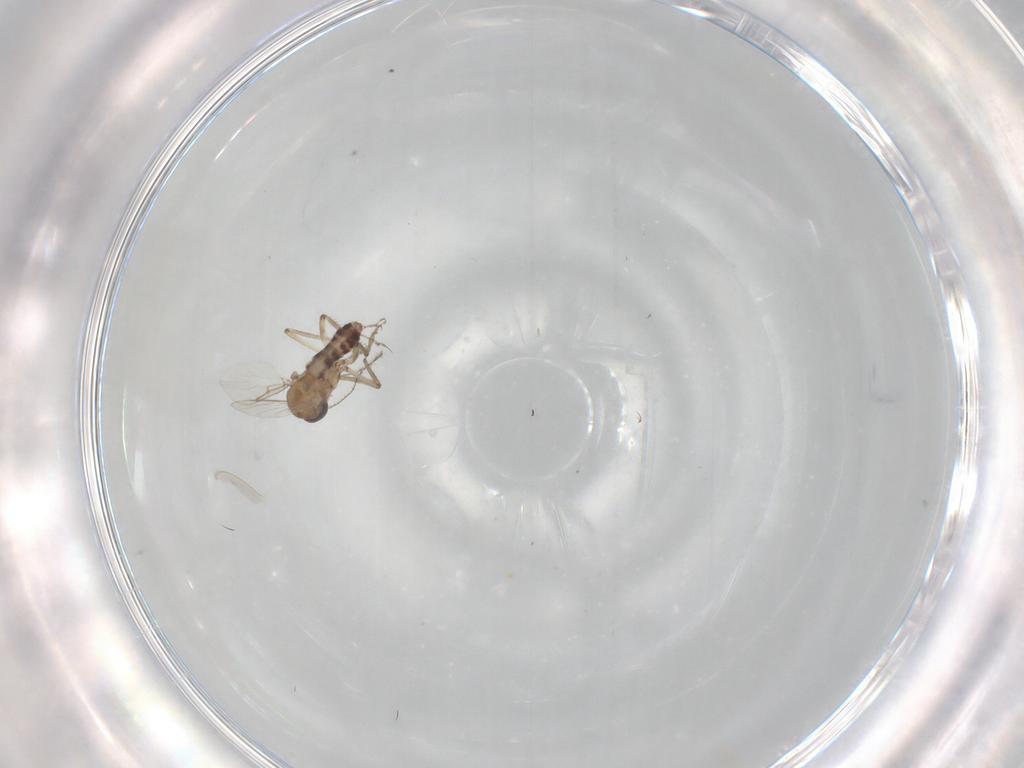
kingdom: Animalia
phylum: Arthropoda
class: Insecta
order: Diptera
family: Ceratopogonidae
